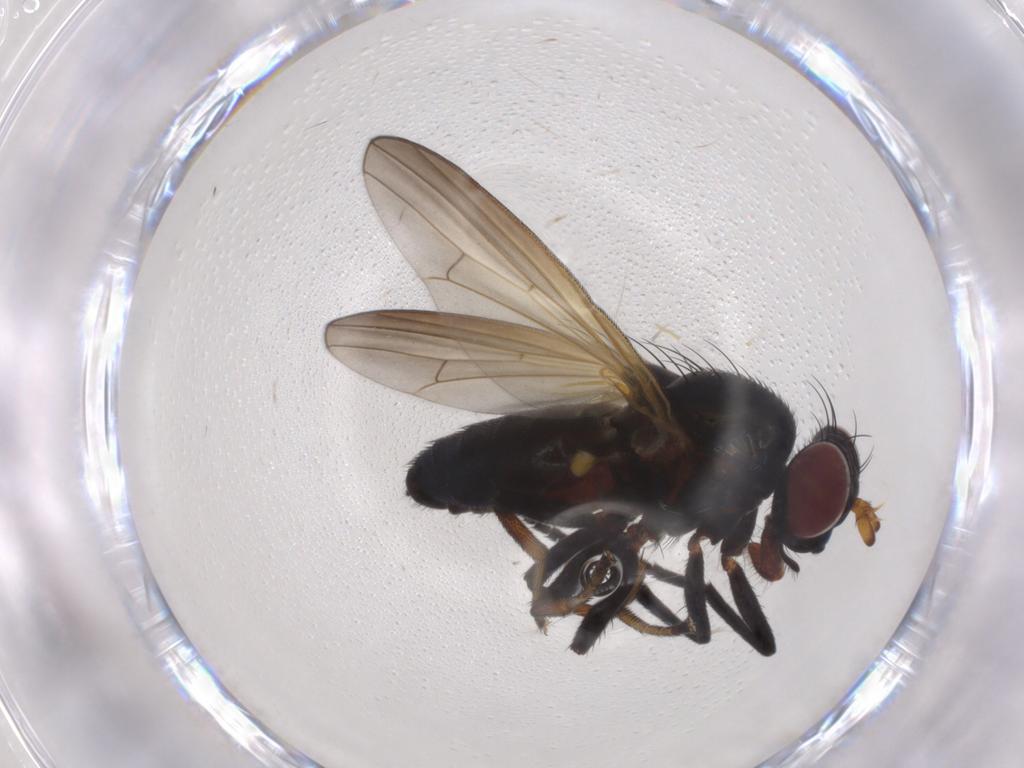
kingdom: Animalia
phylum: Arthropoda
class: Insecta
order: Diptera
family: Lauxaniidae
